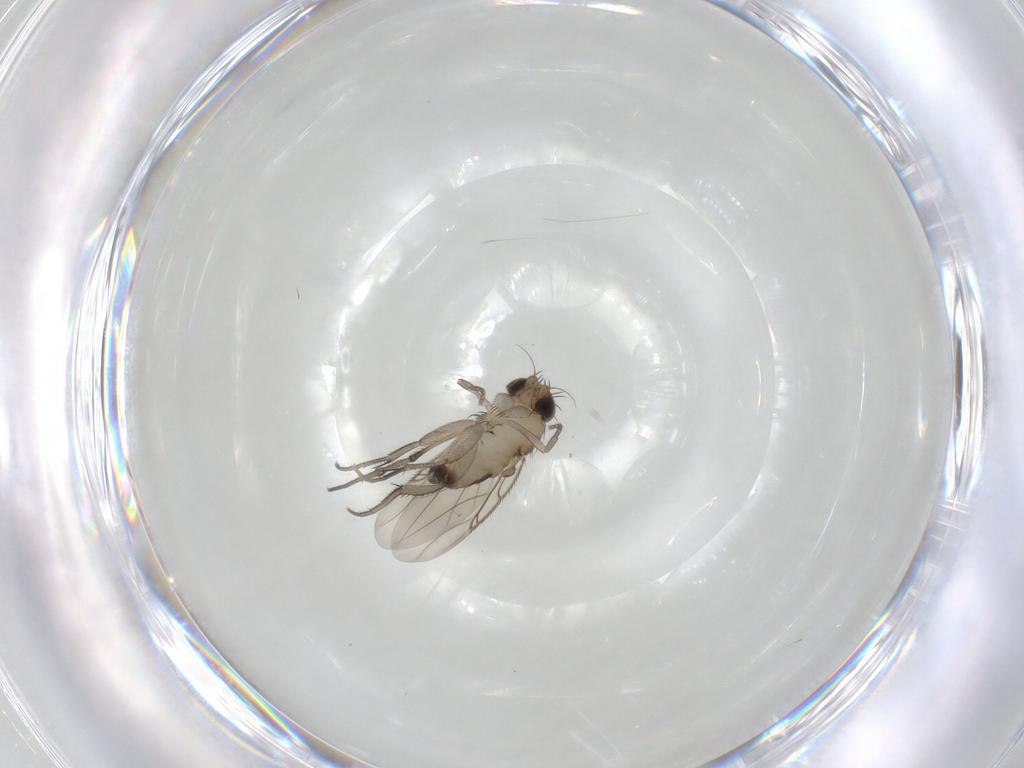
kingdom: Animalia
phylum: Arthropoda
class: Insecta
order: Diptera
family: Phoridae
